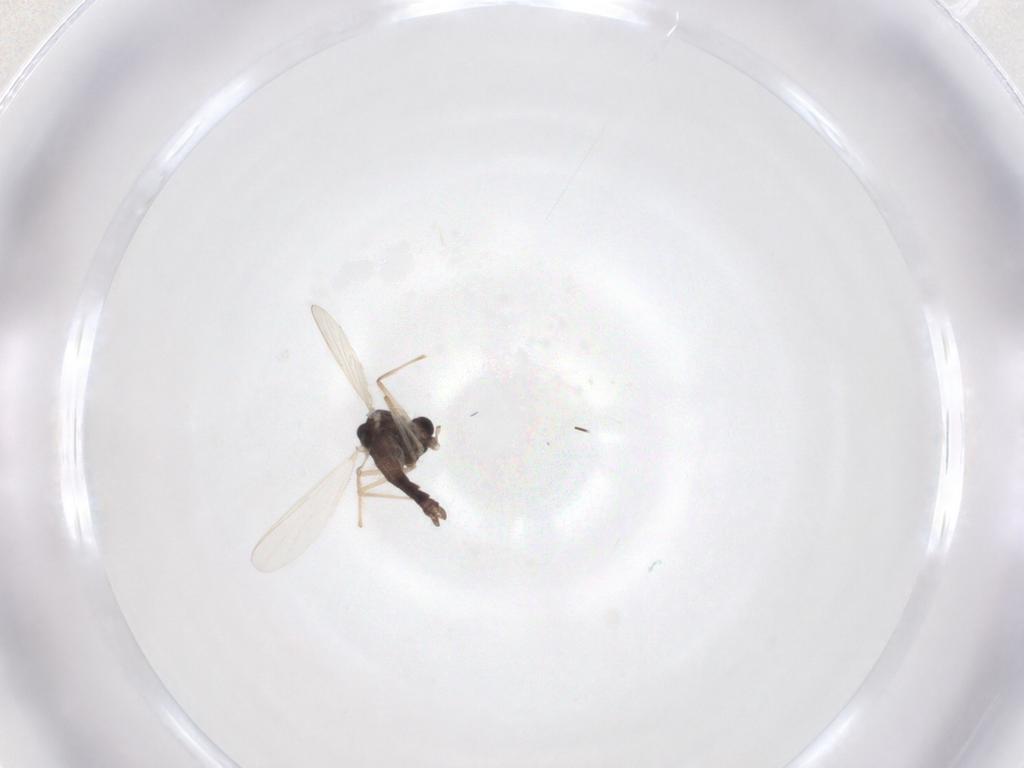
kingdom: Animalia
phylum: Arthropoda
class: Insecta
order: Diptera
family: Chironomidae
